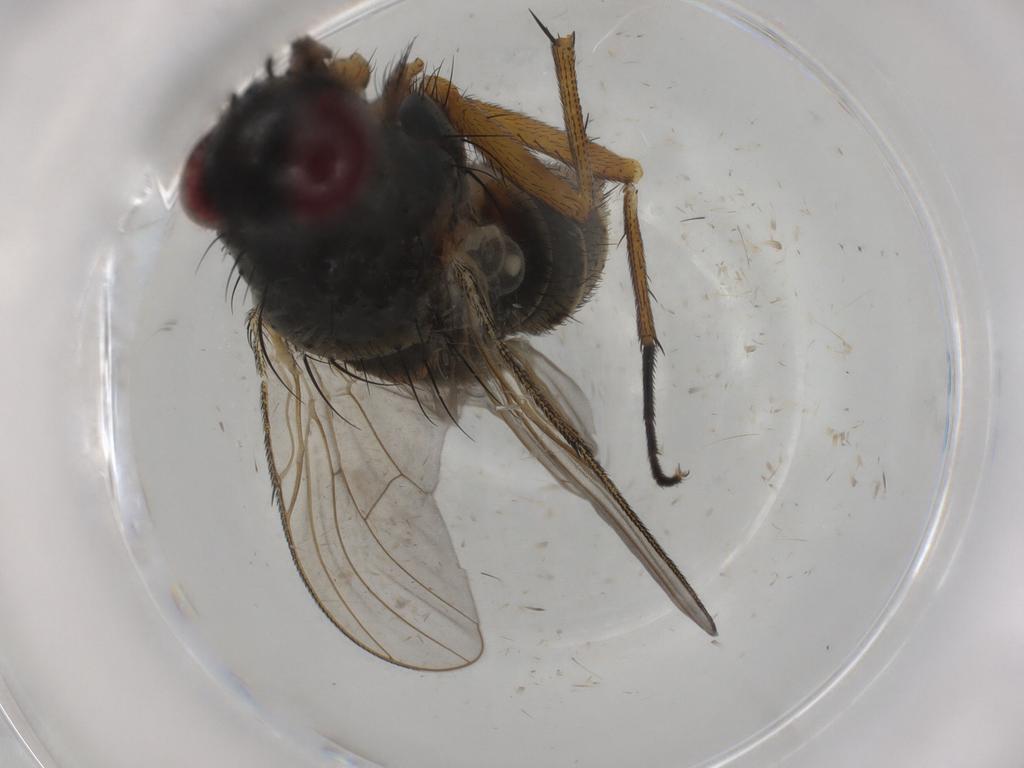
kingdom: Animalia
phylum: Arthropoda
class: Insecta
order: Diptera
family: Muscidae
